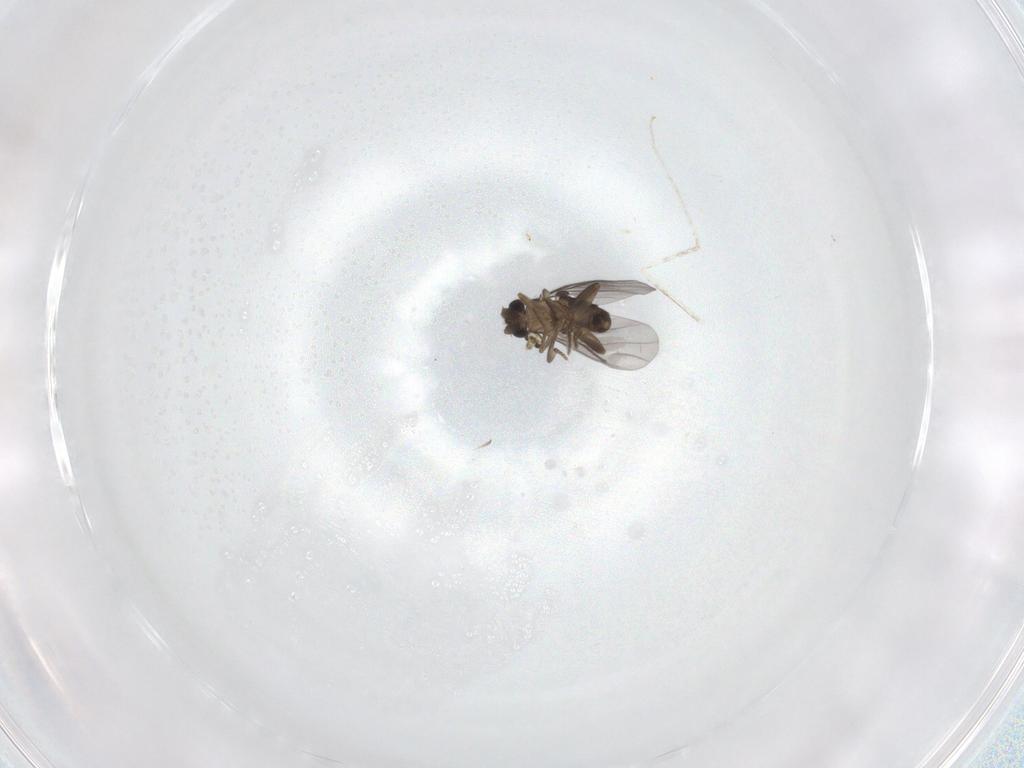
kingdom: Animalia
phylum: Arthropoda
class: Insecta
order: Diptera
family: Cecidomyiidae
